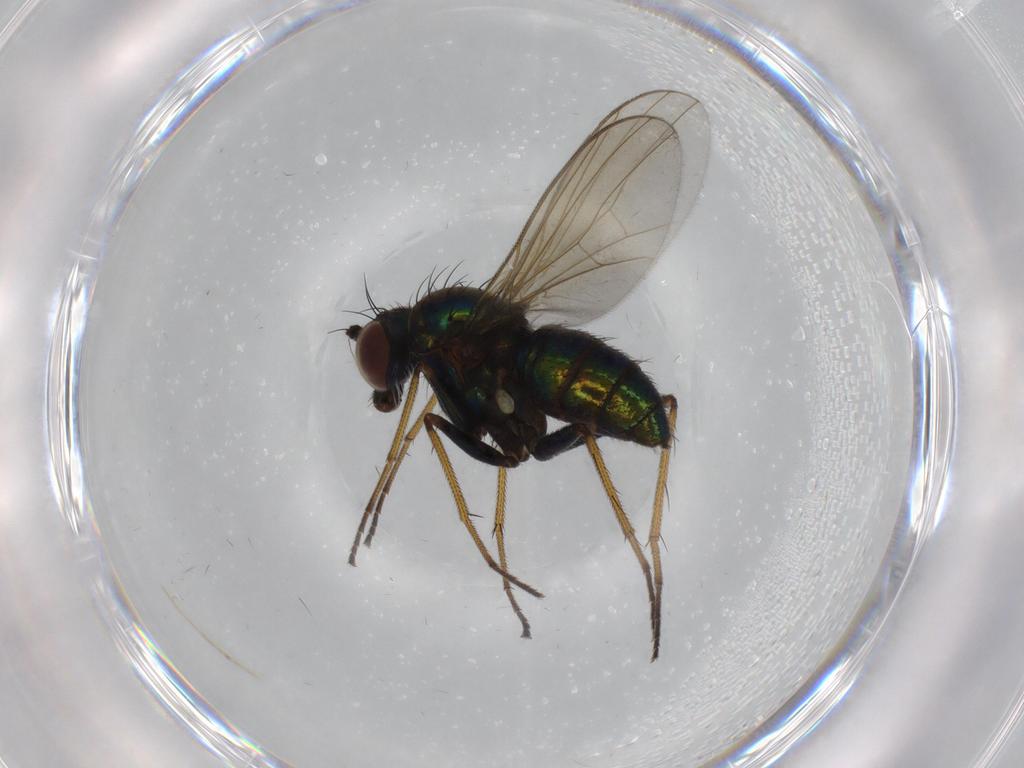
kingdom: Animalia
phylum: Arthropoda
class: Insecta
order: Diptera
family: Dolichopodidae
